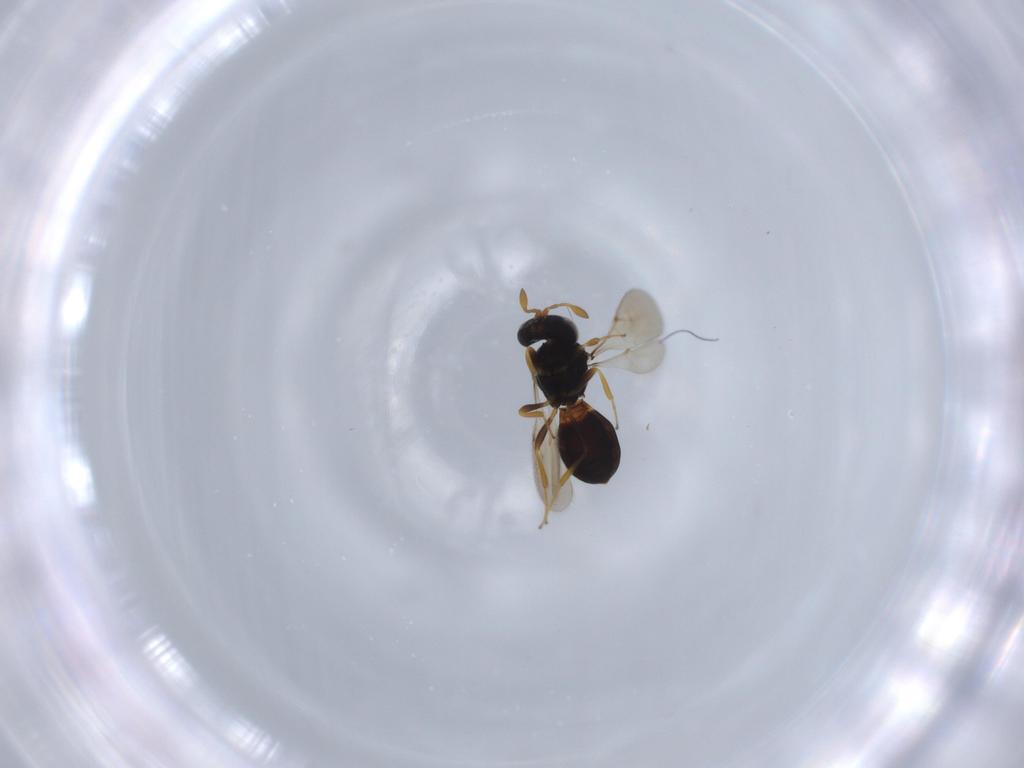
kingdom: Animalia
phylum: Arthropoda
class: Insecta
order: Hymenoptera
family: Scelionidae
